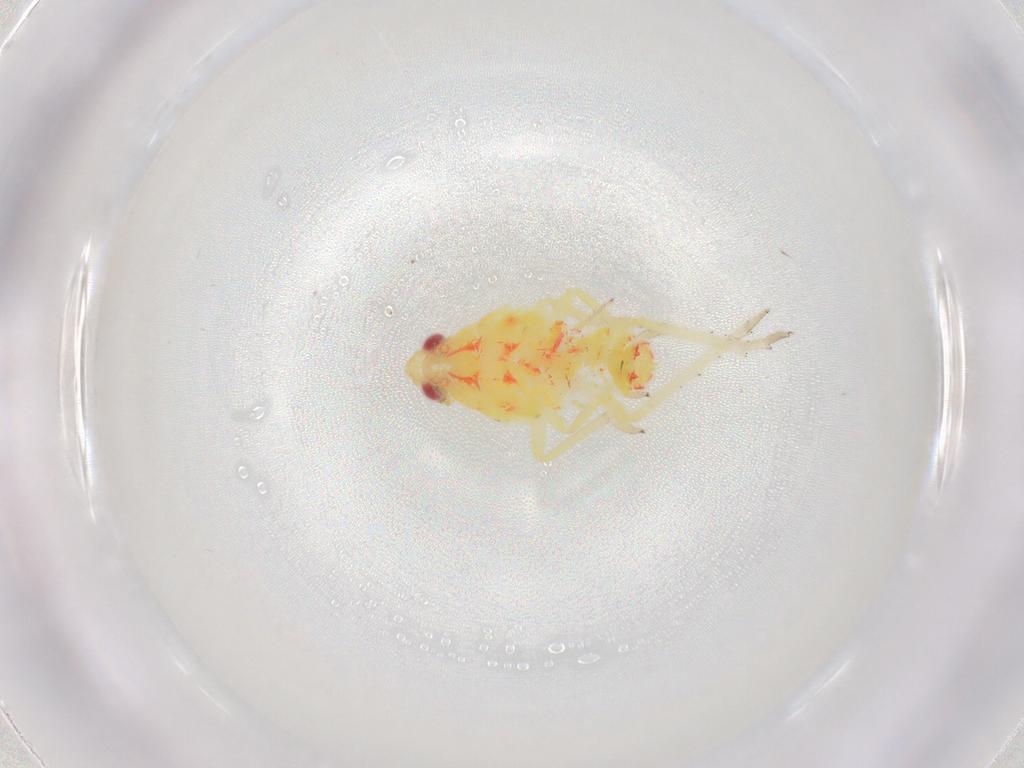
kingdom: Animalia
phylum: Arthropoda
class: Insecta
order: Hemiptera
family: Tropiduchidae
